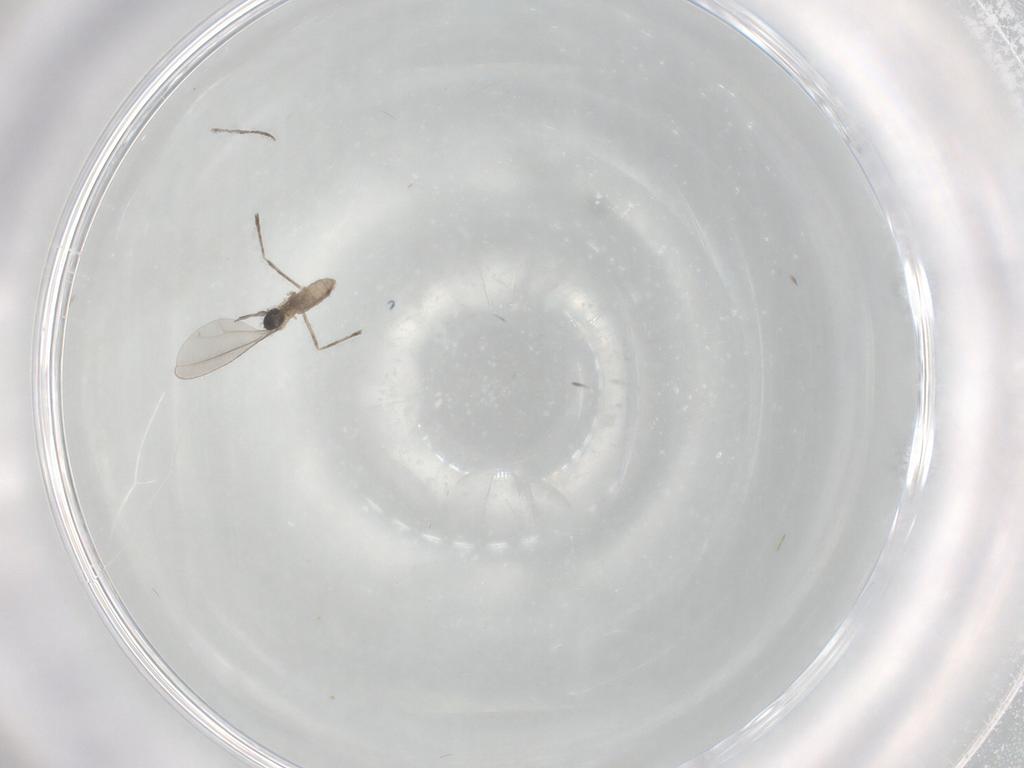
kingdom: Animalia
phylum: Arthropoda
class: Insecta
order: Diptera
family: Cecidomyiidae
